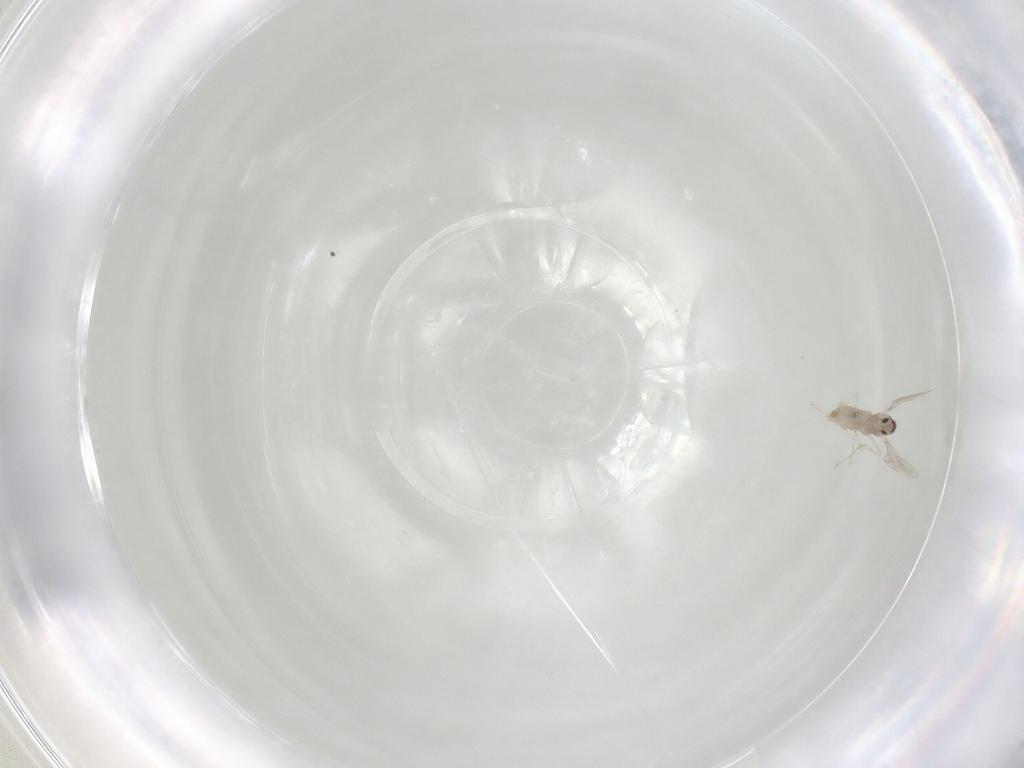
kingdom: Animalia
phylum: Arthropoda
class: Insecta
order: Diptera
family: Cecidomyiidae
